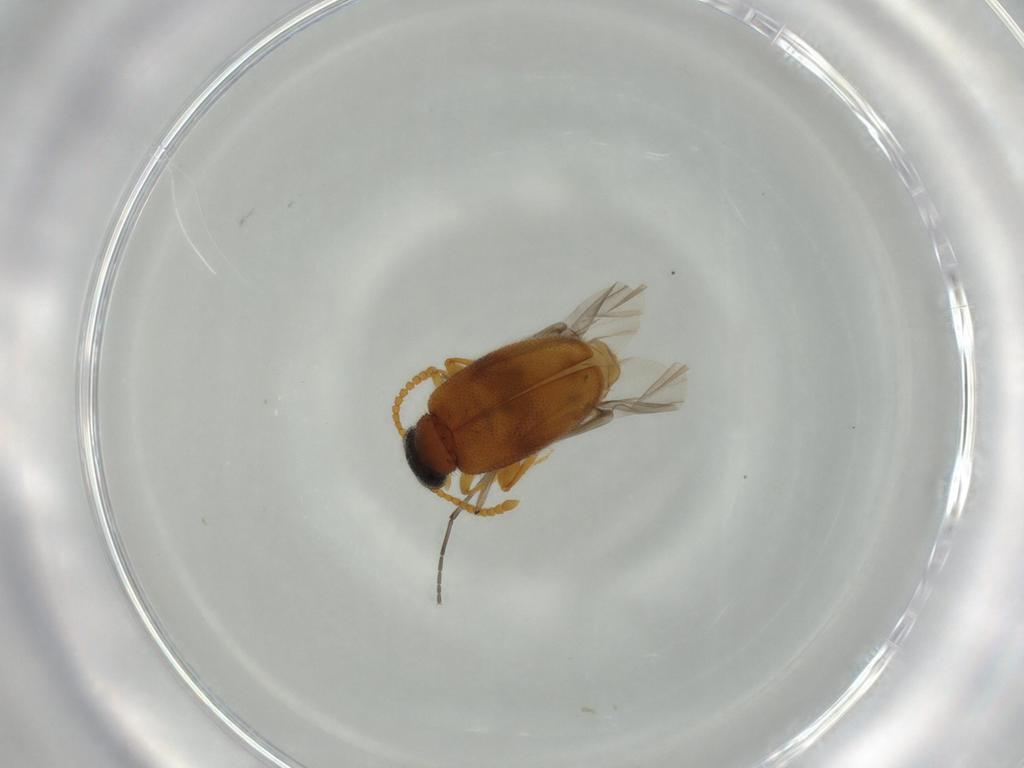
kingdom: Animalia
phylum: Arthropoda
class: Insecta
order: Coleoptera
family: Aderidae
